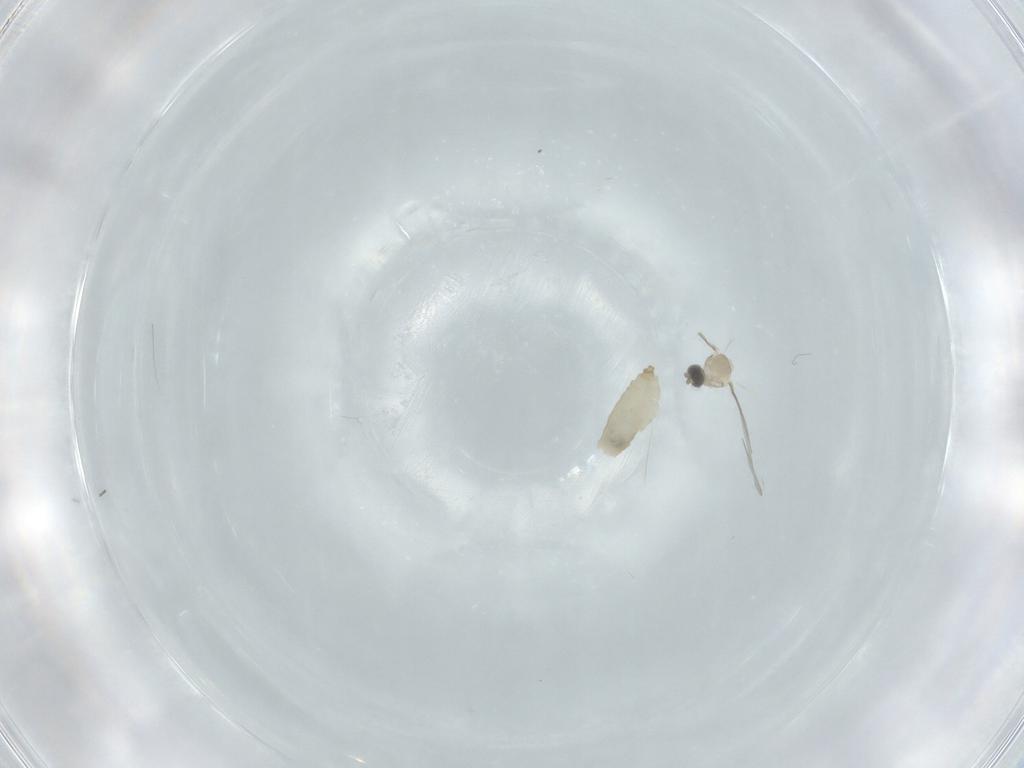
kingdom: Animalia
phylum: Arthropoda
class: Insecta
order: Diptera
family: Cecidomyiidae
